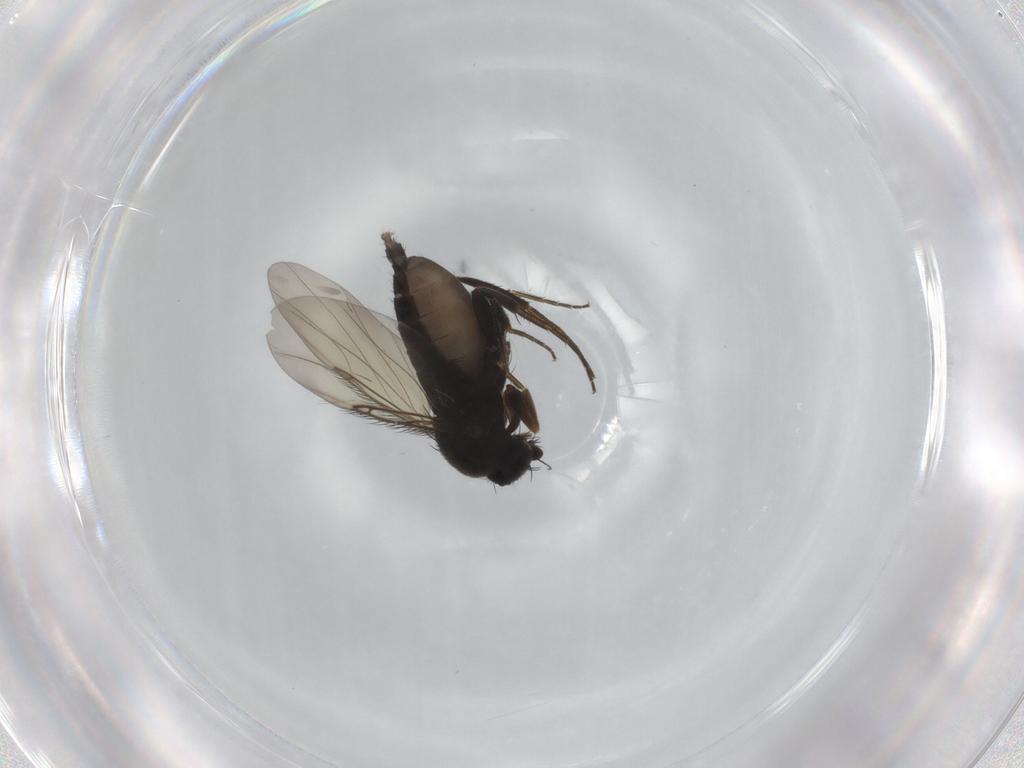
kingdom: Animalia
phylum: Arthropoda
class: Insecta
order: Diptera
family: Phoridae
